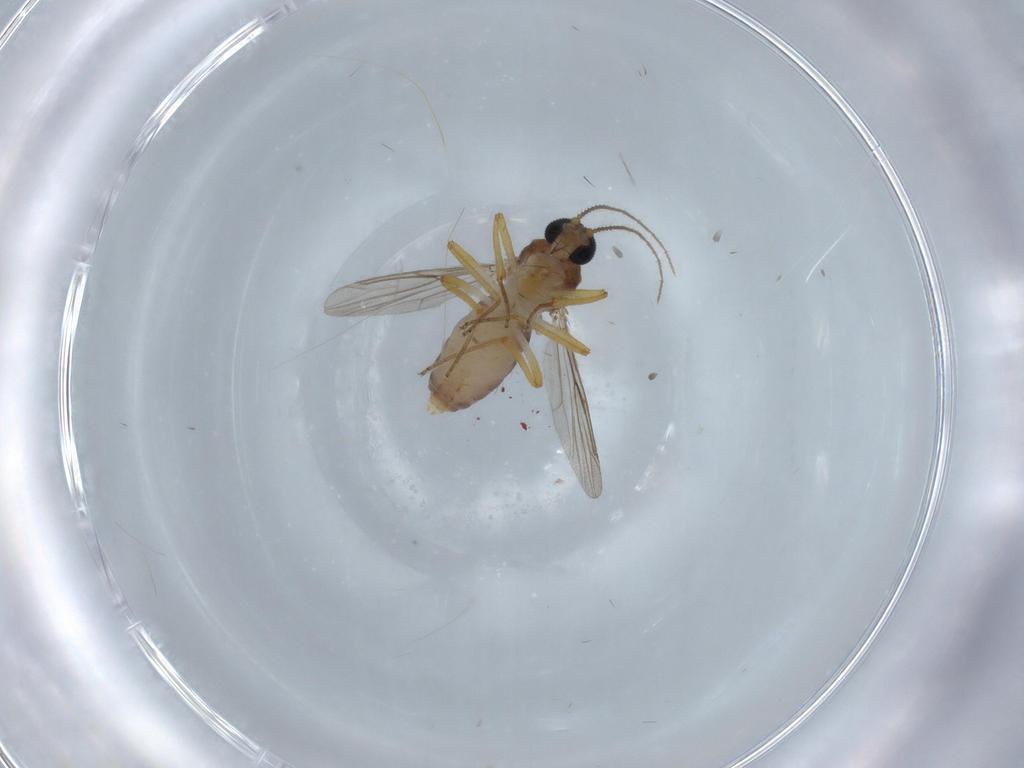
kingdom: Animalia
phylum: Arthropoda
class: Insecta
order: Diptera
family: Ceratopogonidae
